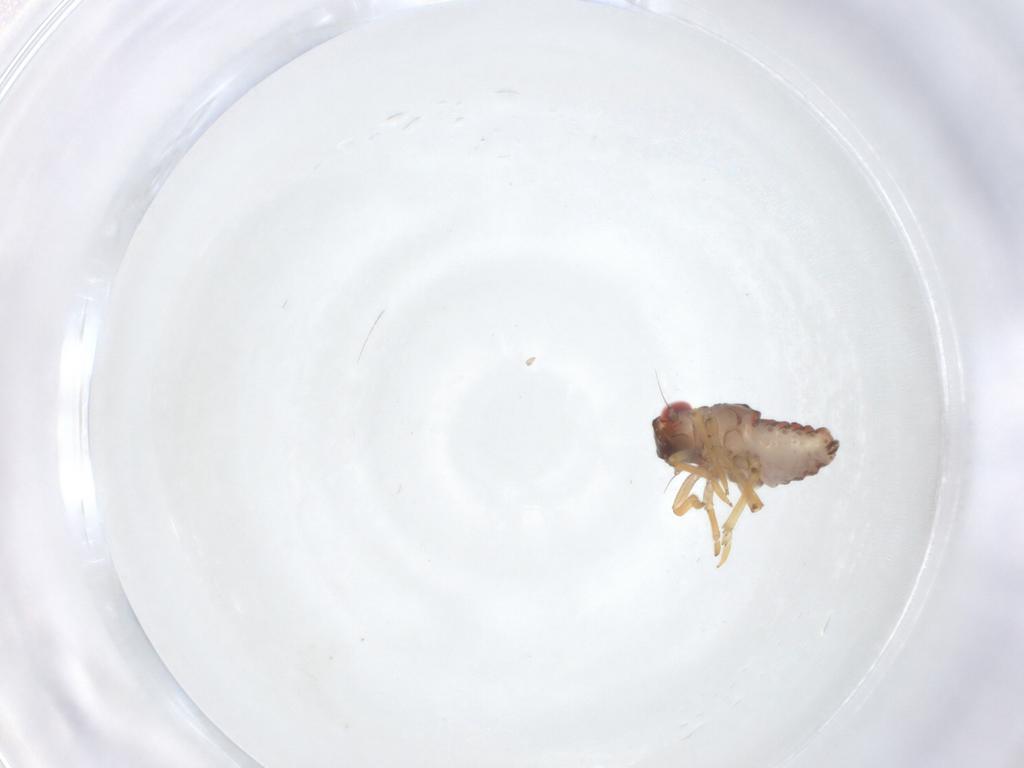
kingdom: Animalia
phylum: Arthropoda
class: Insecta
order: Hemiptera
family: Fulgoroidea_incertae_sedis
